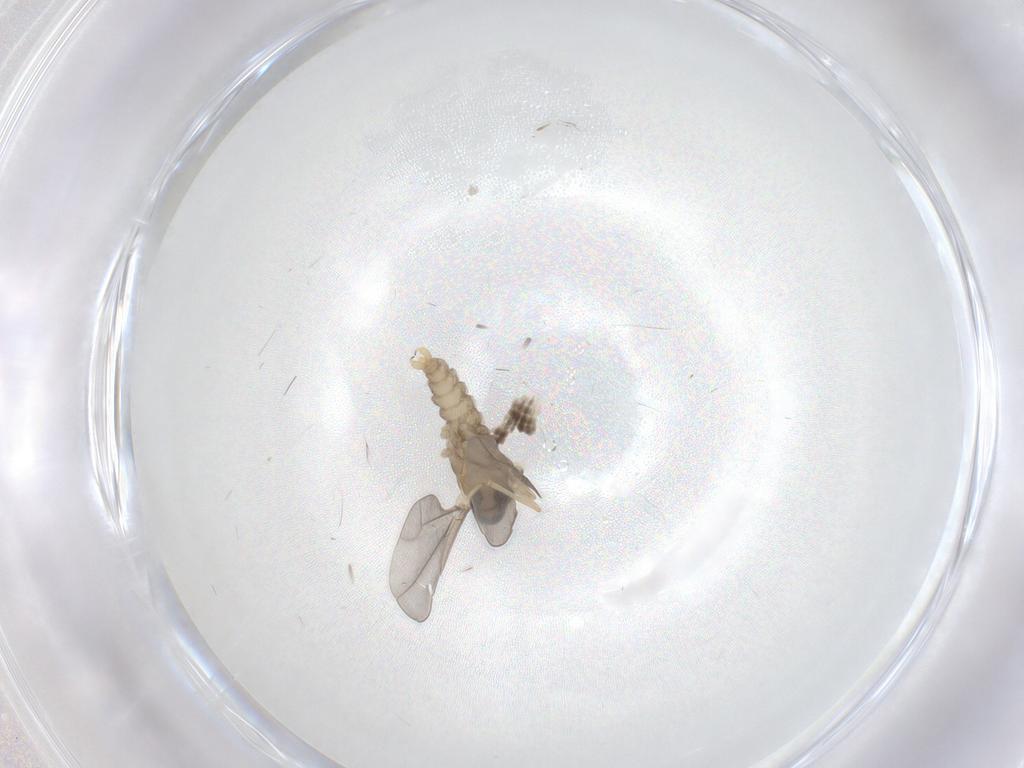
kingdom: Animalia
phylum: Arthropoda
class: Insecta
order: Diptera
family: Cecidomyiidae
